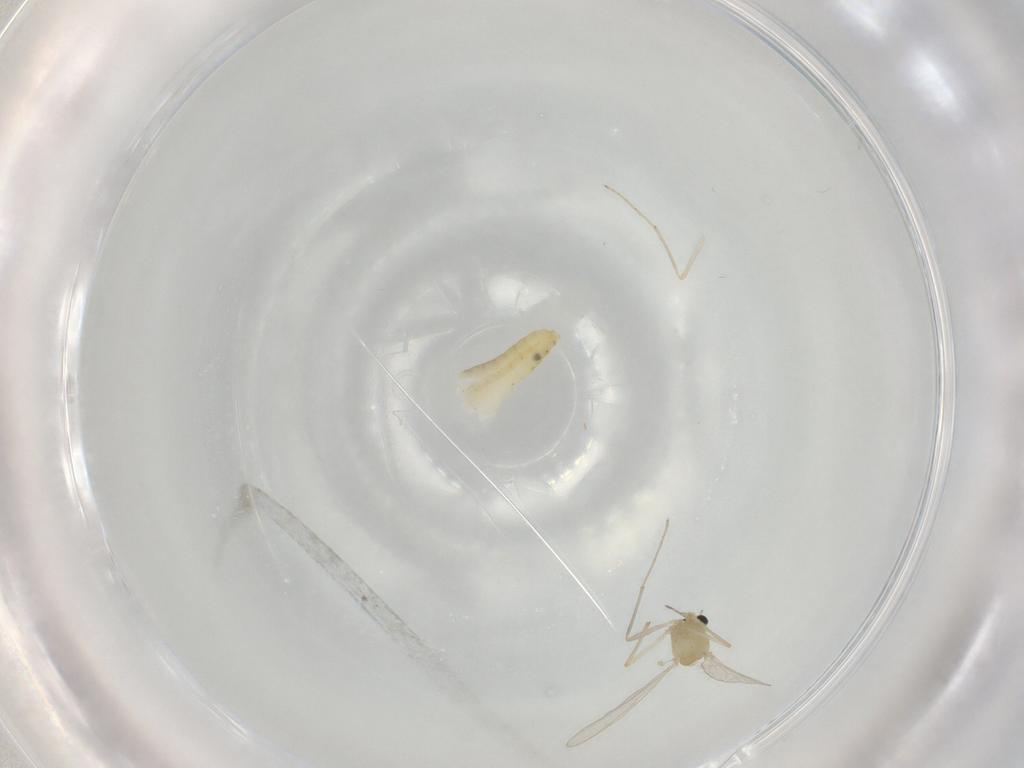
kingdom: Animalia
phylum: Arthropoda
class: Insecta
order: Diptera
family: Chironomidae
